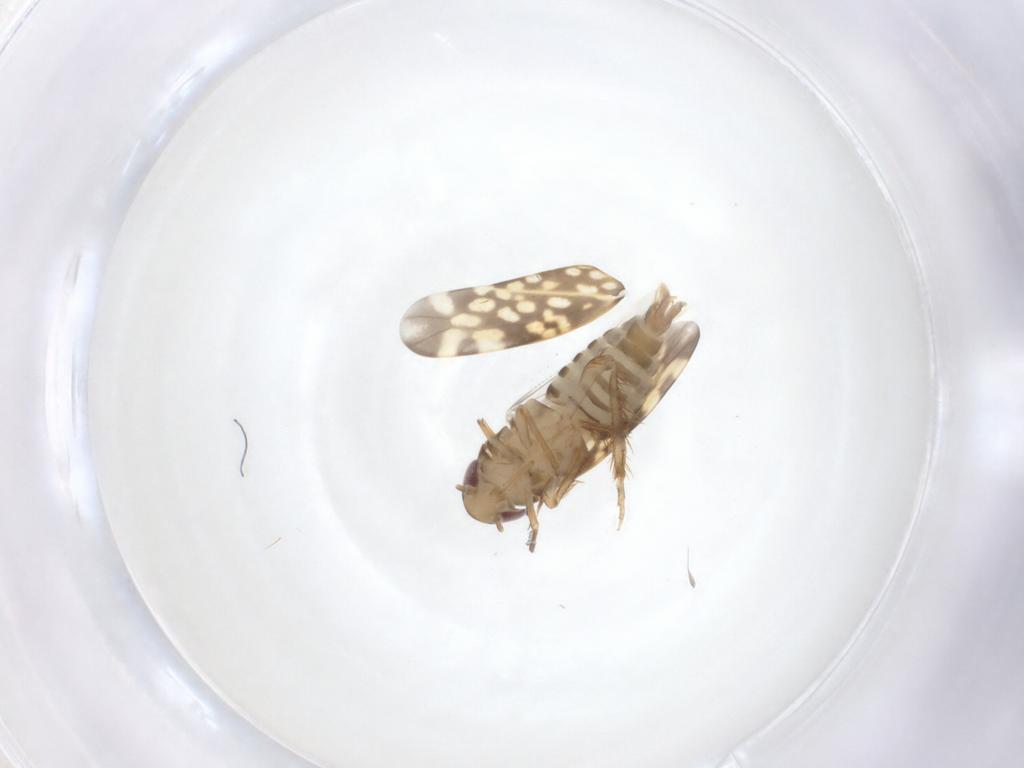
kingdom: Animalia
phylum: Arthropoda
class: Insecta
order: Hemiptera
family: Cicadellidae
